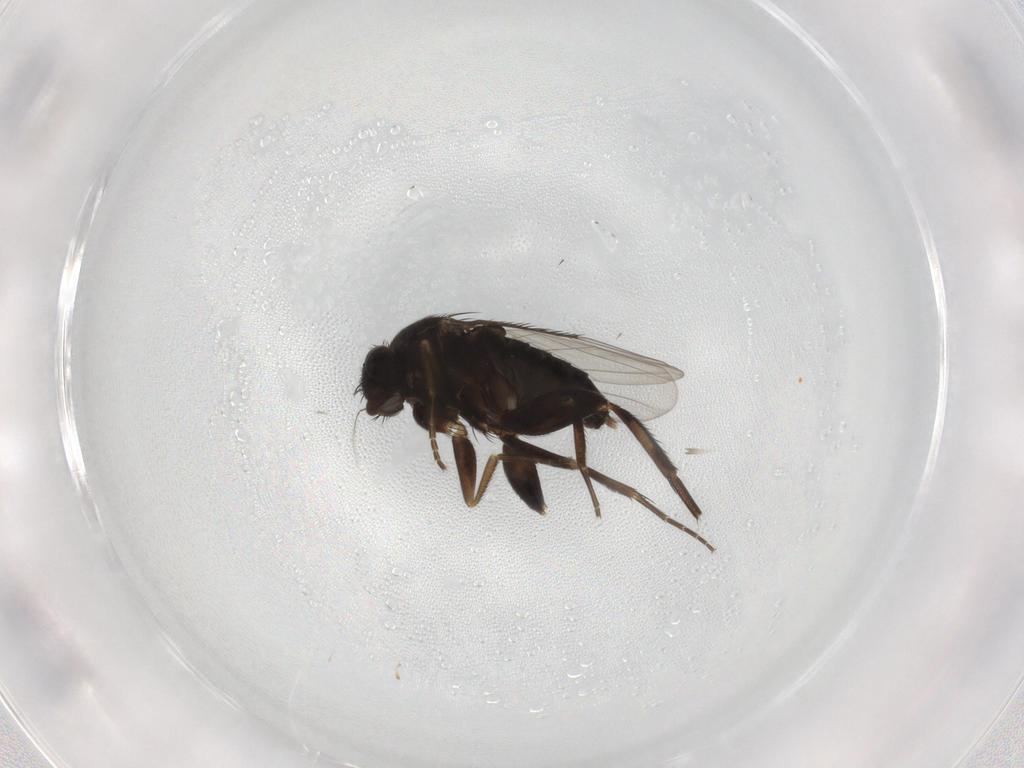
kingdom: Animalia
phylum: Arthropoda
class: Insecta
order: Diptera
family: Phoridae
